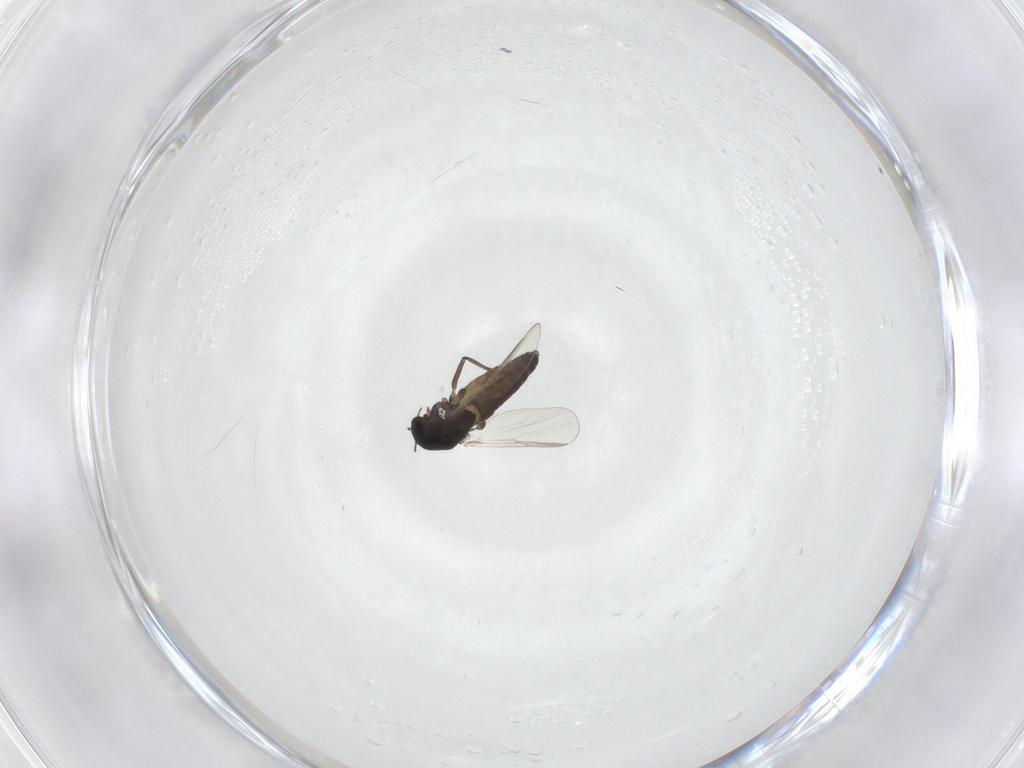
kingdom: Animalia
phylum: Arthropoda
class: Insecta
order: Diptera
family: Chironomidae
